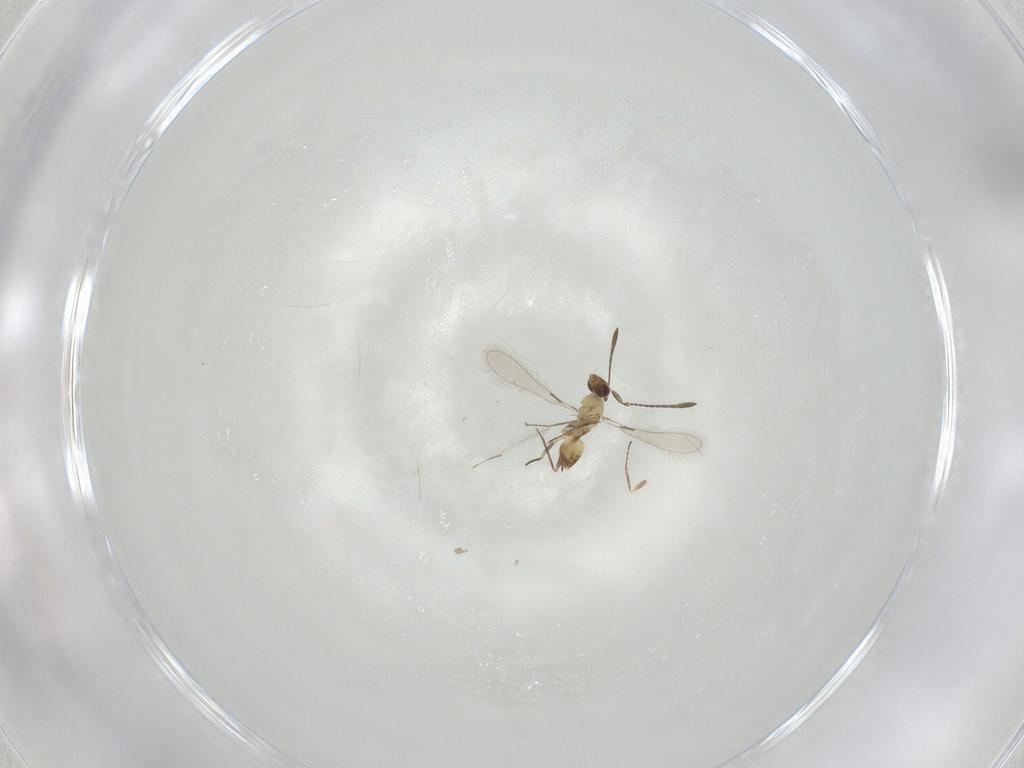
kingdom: Animalia
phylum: Arthropoda
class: Insecta
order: Hymenoptera
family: Mymaridae
